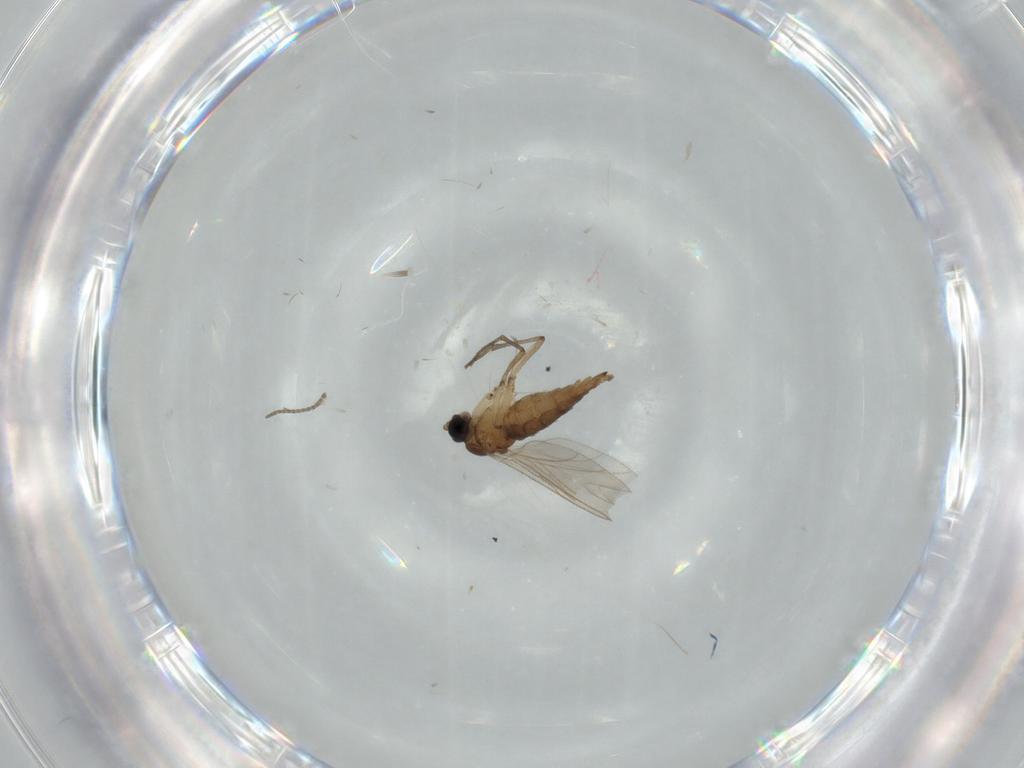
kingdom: Animalia
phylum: Arthropoda
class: Insecta
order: Diptera
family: Sciaridae
